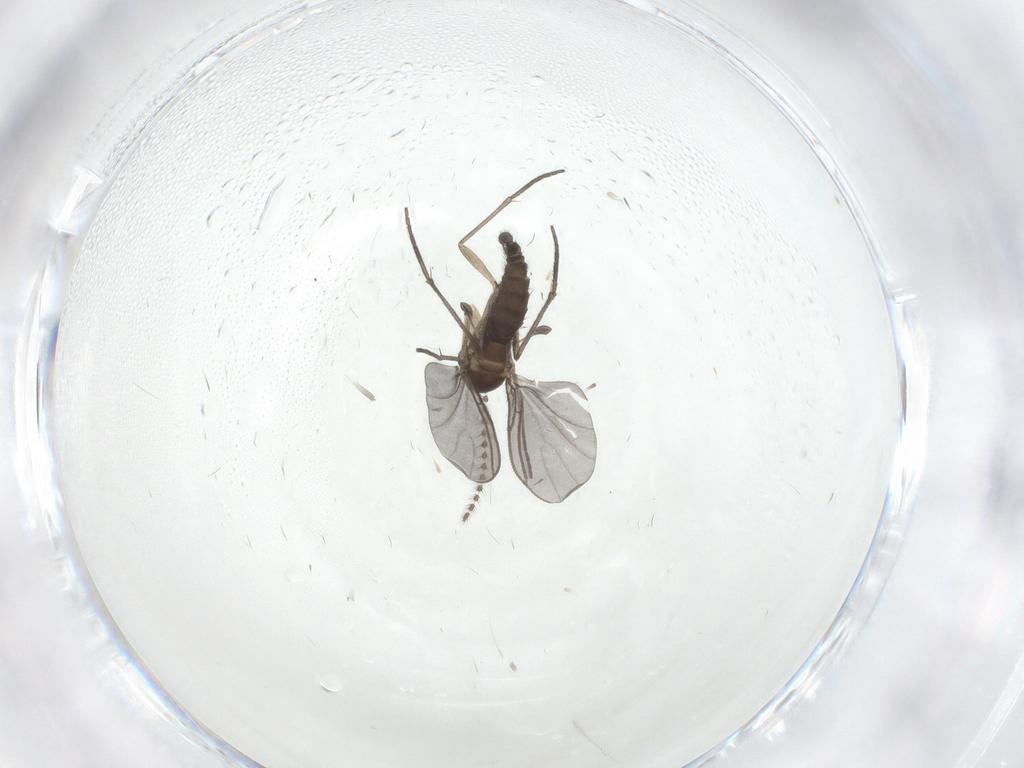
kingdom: Animalia
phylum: Arthropoda
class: Insecta
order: Diptera
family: Sciaridae
